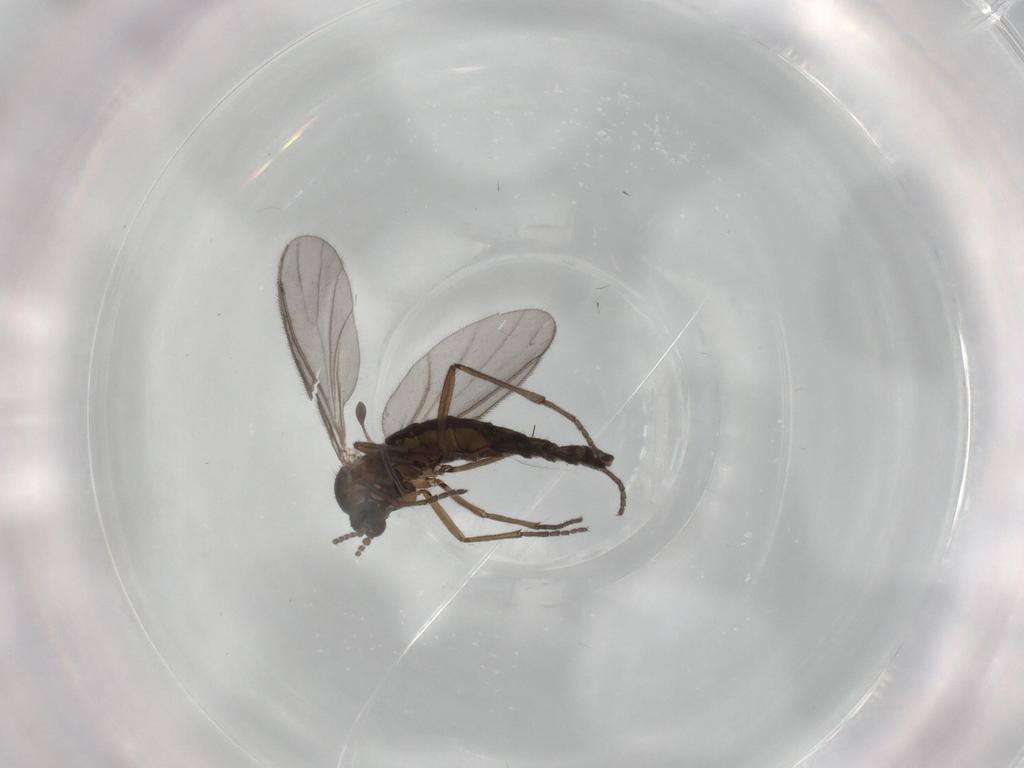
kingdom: Animalia
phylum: Arthropoda
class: Insecta
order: Diptera
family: Sciaridae
